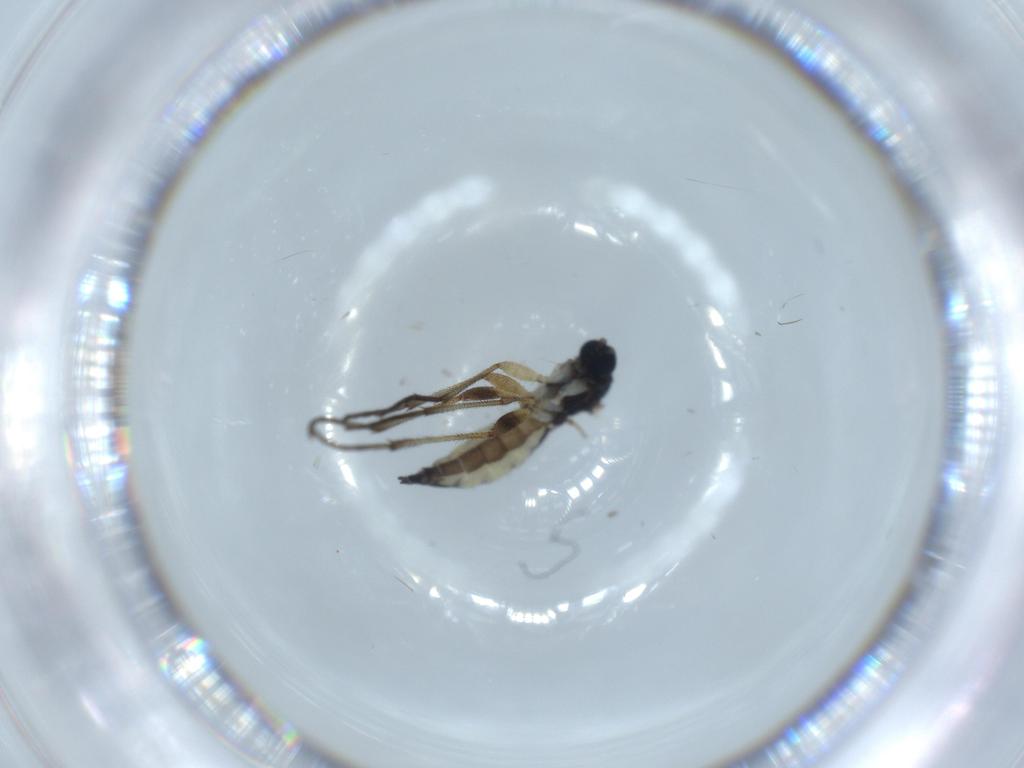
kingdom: Animalia
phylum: Arthropoda
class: Insecta
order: Diptera
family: Sciaridae
